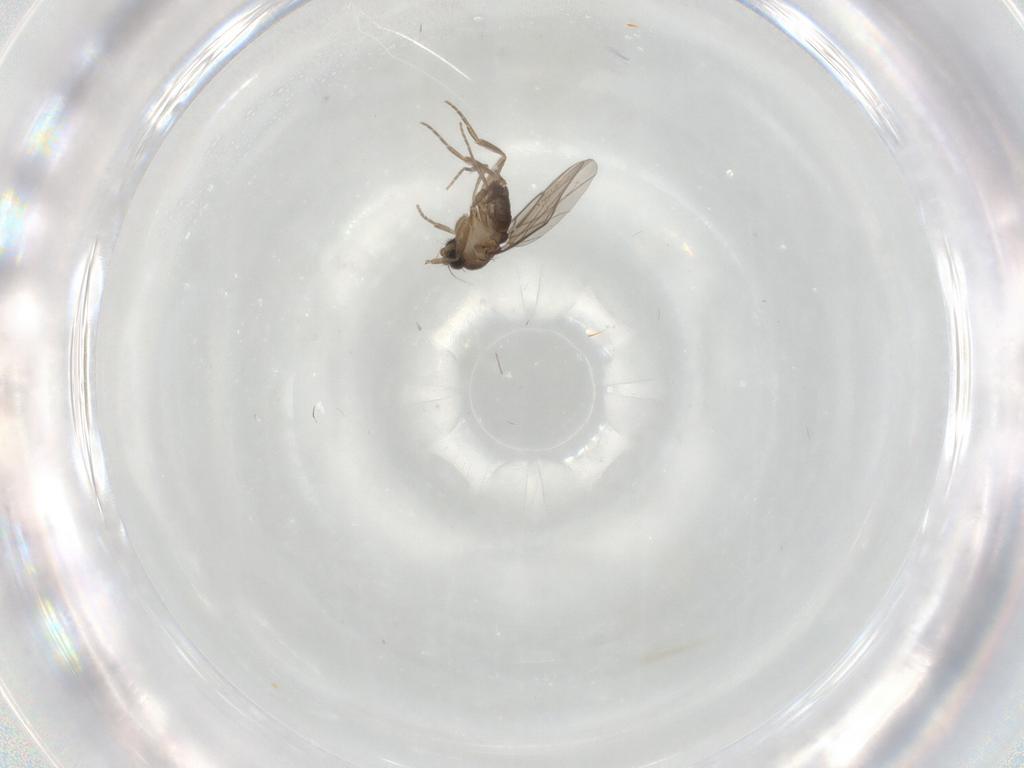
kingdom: Animalia
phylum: Arthropoda
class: Insecta
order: Diptera
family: Phoridae
